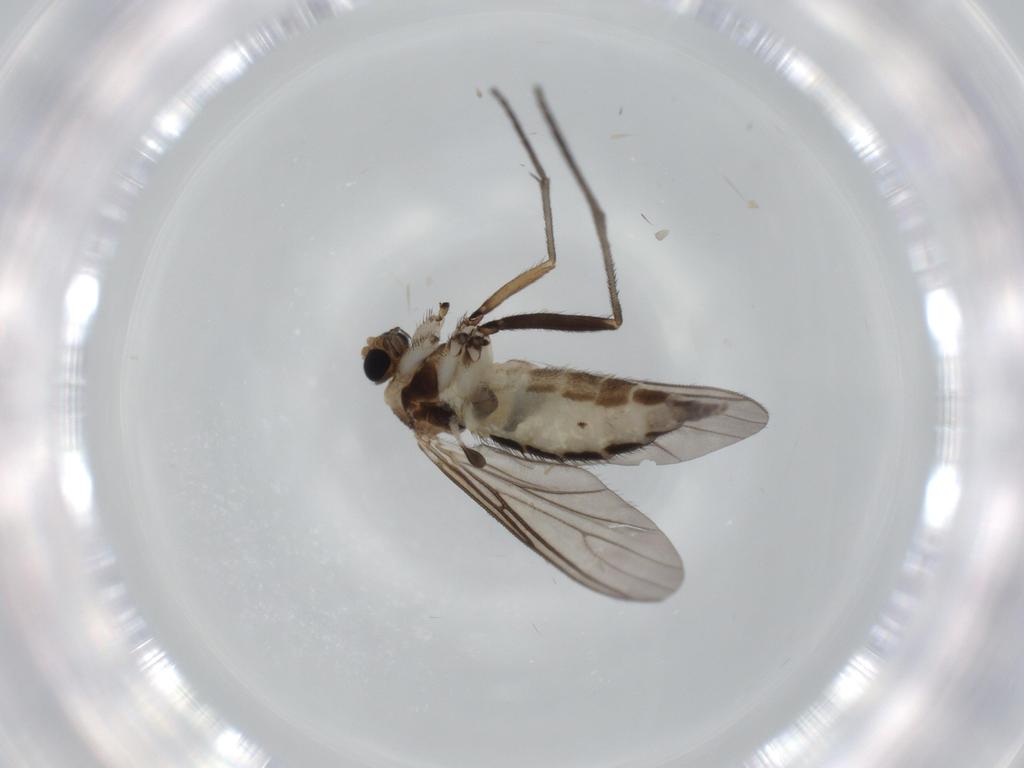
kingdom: Animalia
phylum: Arthropoda
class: Insecta
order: Diptera
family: Sciaridae
